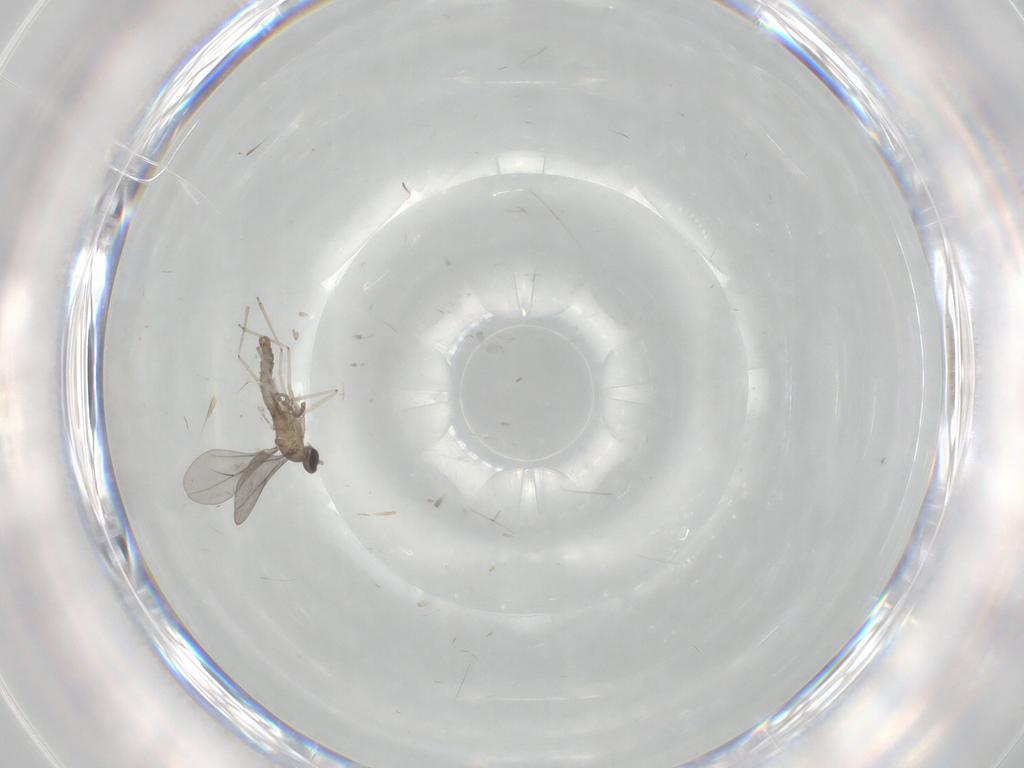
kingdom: Animalia
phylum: Arthropoda
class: Insecta
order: Diptera
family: Cecidomyiidae
